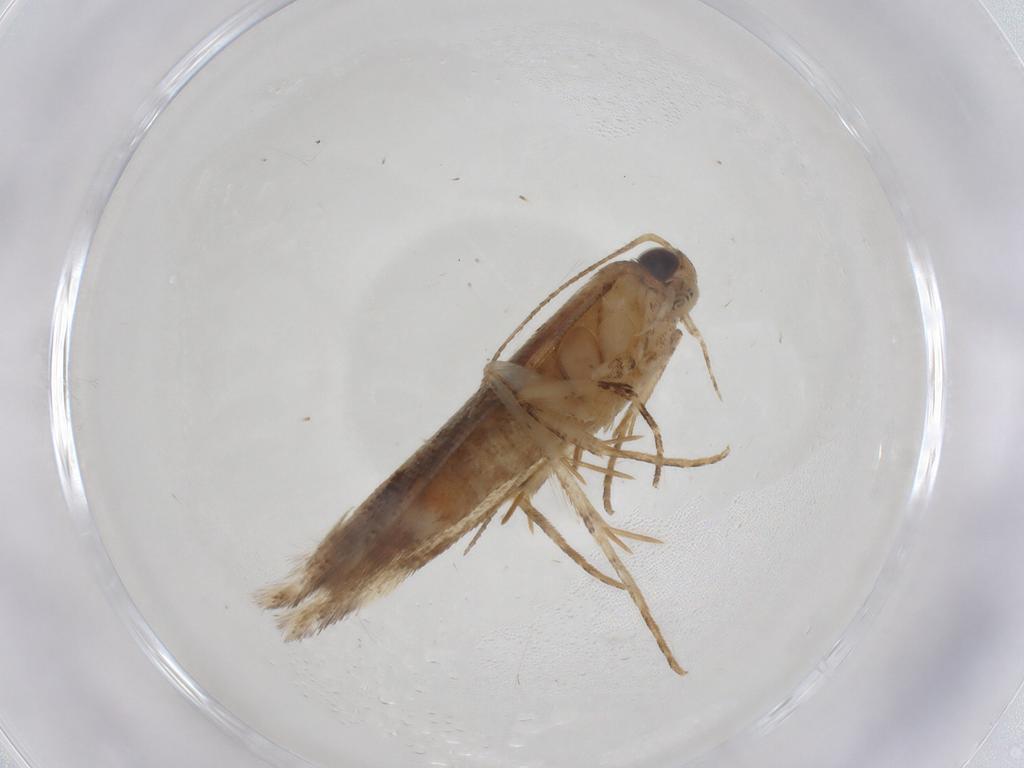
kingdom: Animalia
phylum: Arthropoda
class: Insecta
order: Lepidoptera
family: Gelechiidae
